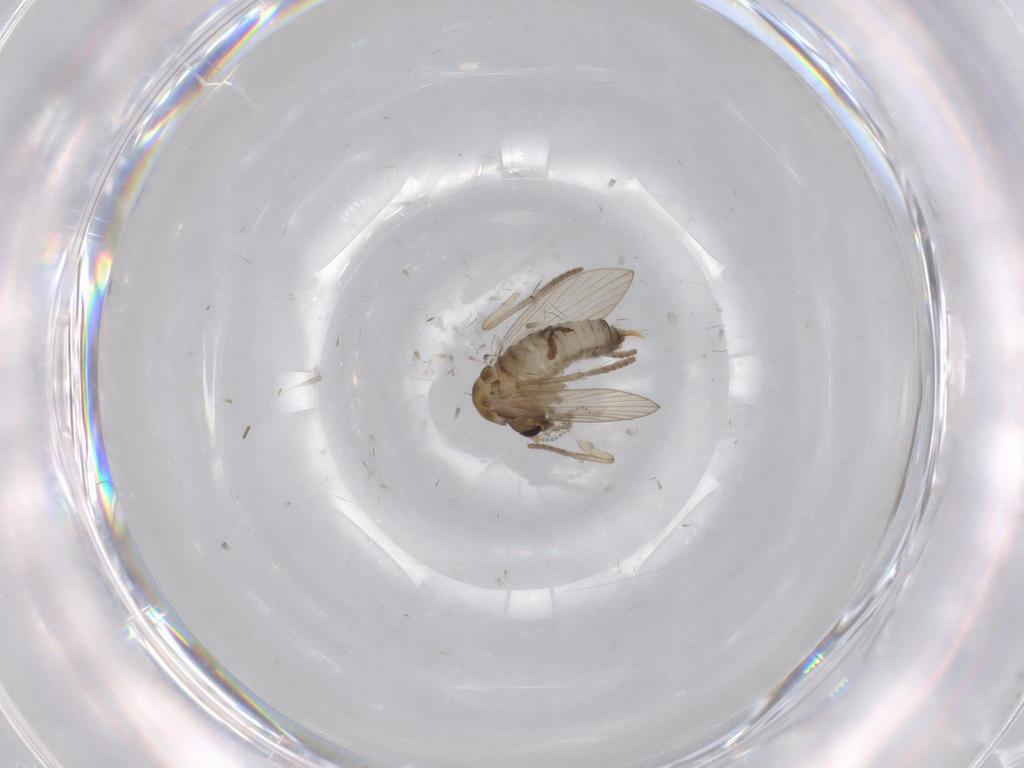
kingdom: Animalia
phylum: Arthropoda
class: Insecta
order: Diptera
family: Psychodidae
